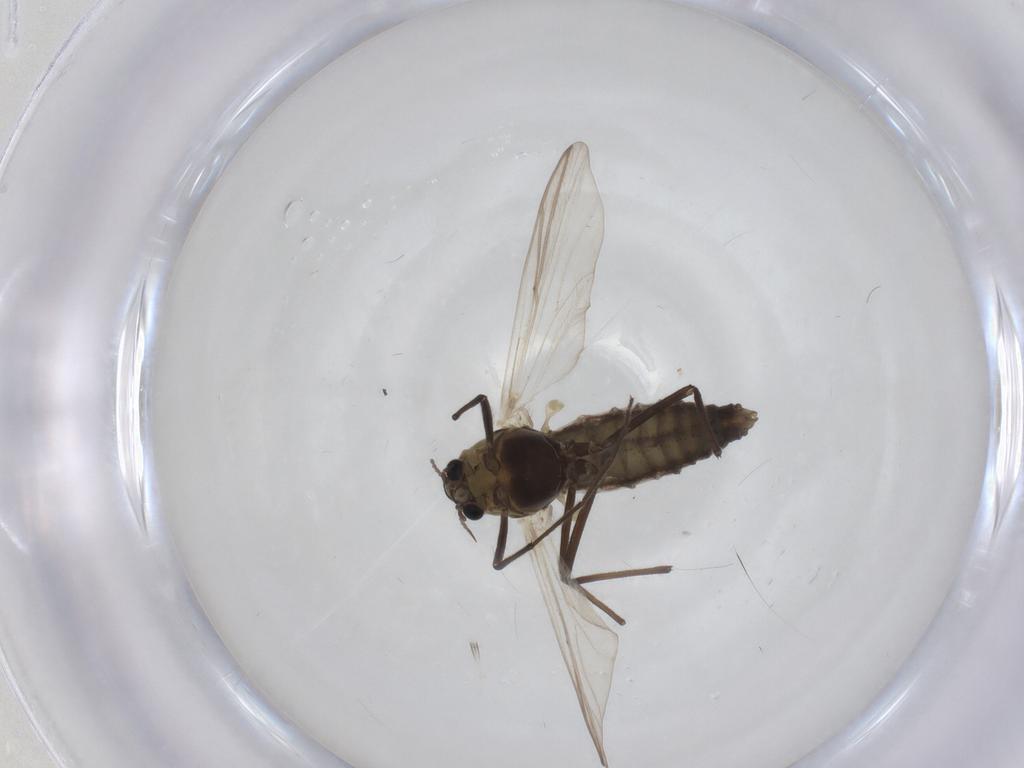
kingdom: Animalia
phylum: Arthropoda
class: Insecta
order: Diptera
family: Chironomidae
